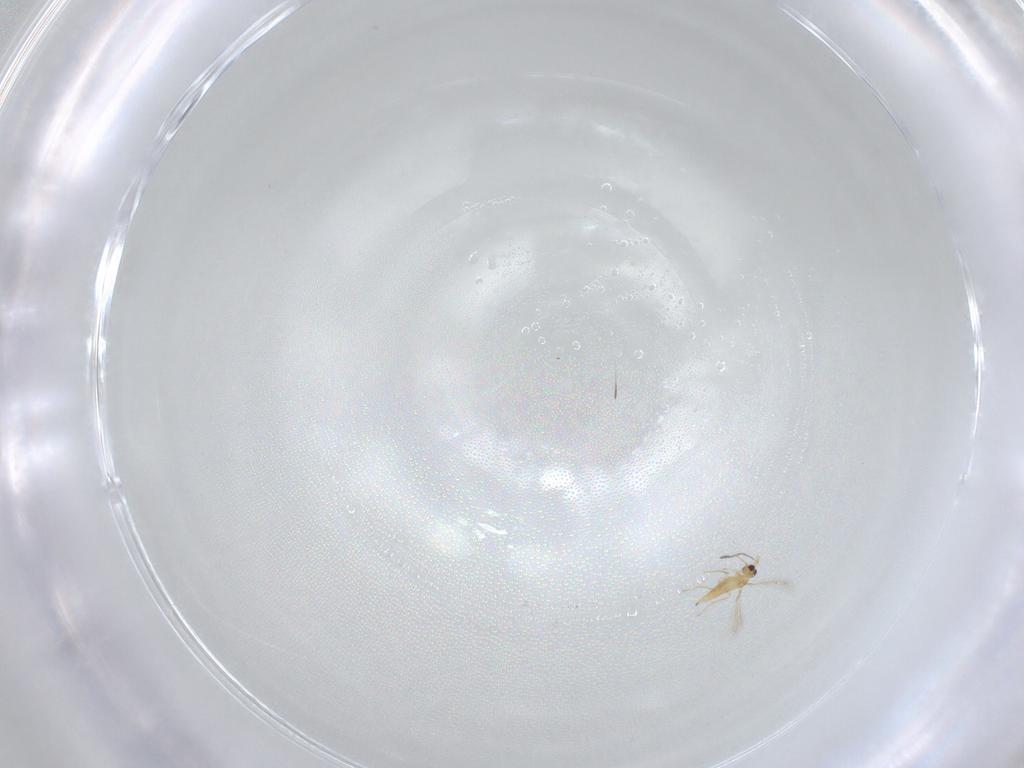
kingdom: Animalia
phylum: Arthropoda
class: Insecta
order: Hymenoptera
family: Mymaridae
